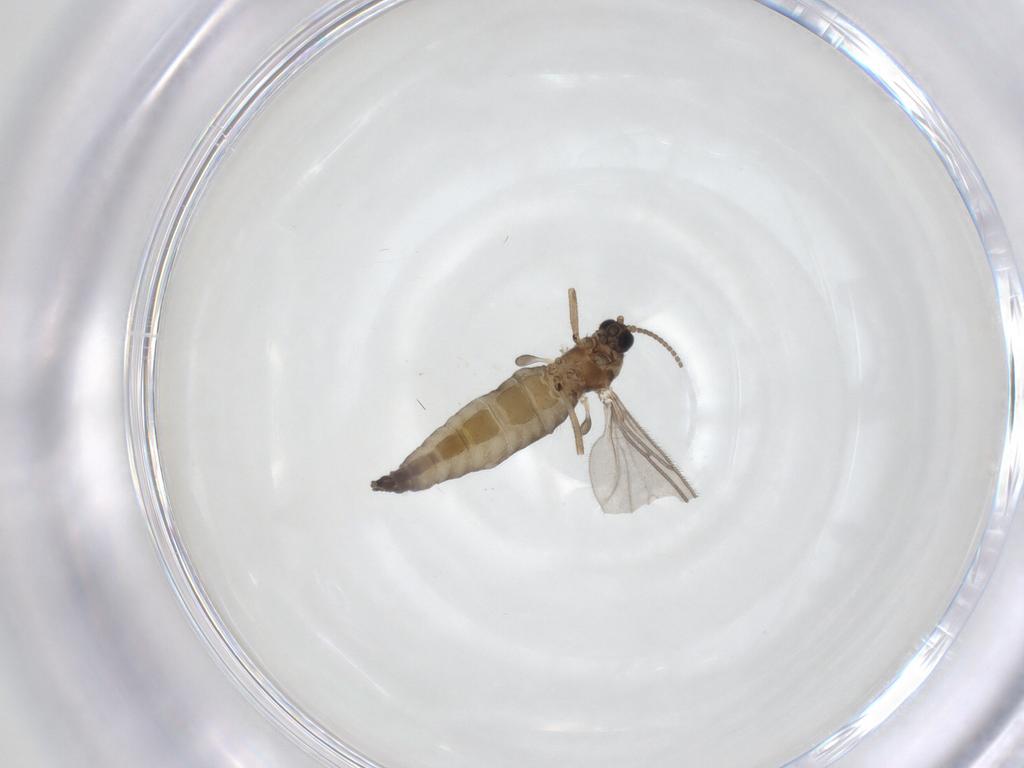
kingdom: Animalia
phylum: Arthropoda
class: Insecta
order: Diptera
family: Sciaridae
